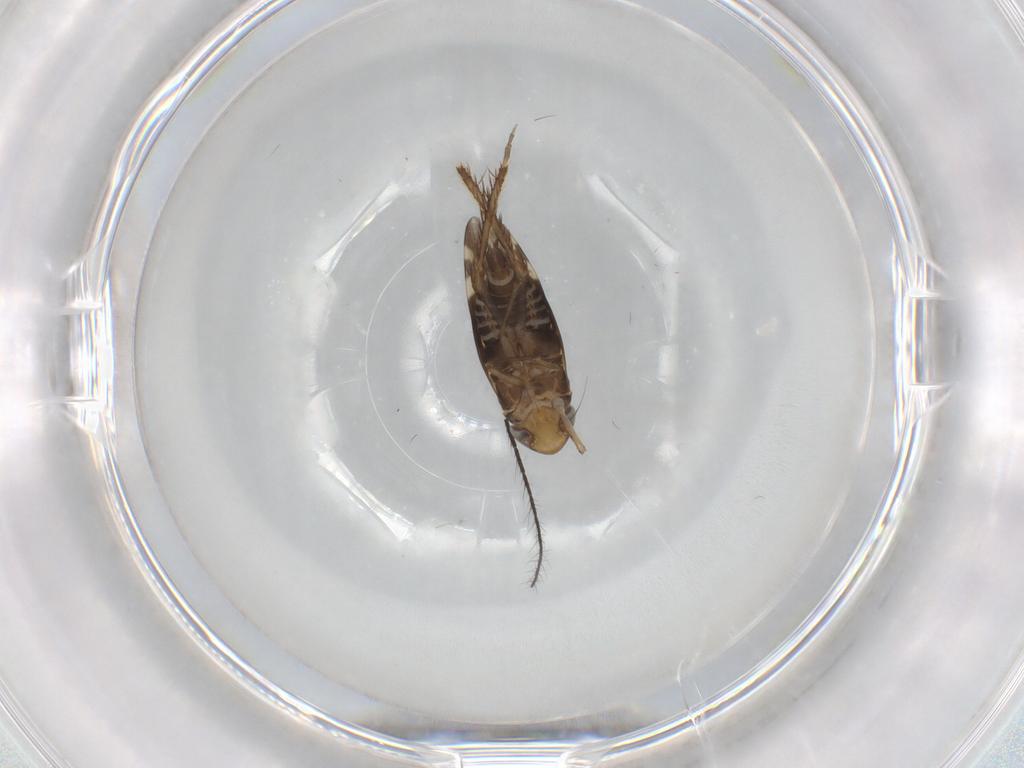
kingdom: Animalia
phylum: Arthropoda
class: Insecta
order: Hemiptera
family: Cicadellidae
